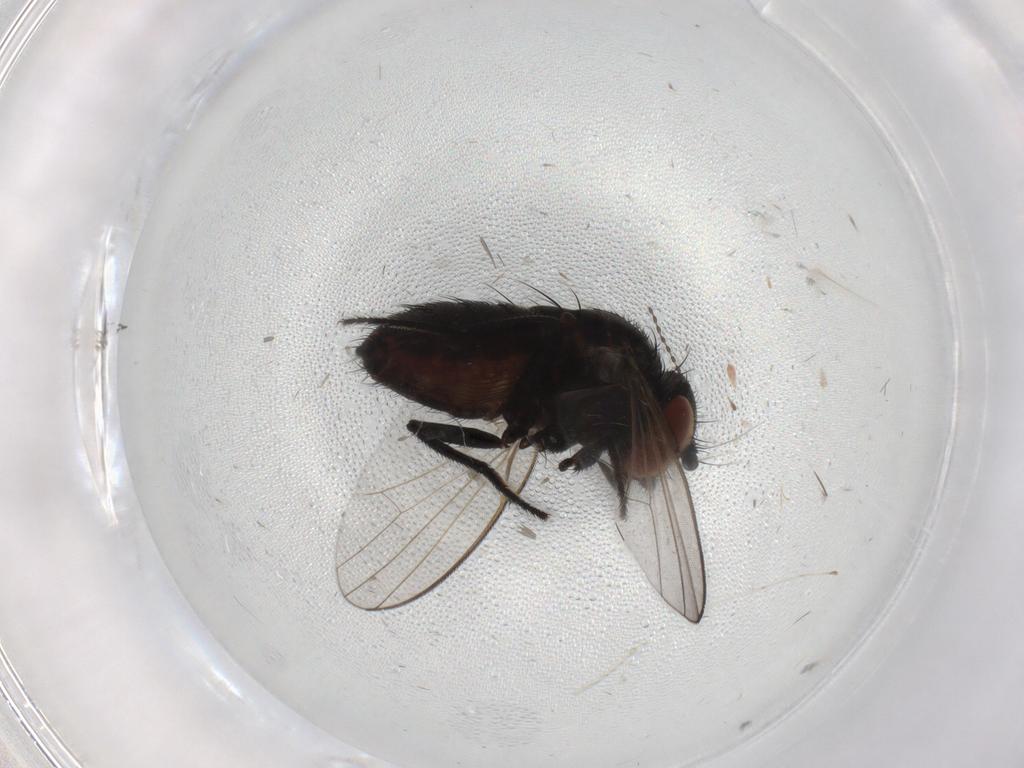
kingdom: Animalia
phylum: Arthropoda
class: Insecta
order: Diptera
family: Milichiidae
